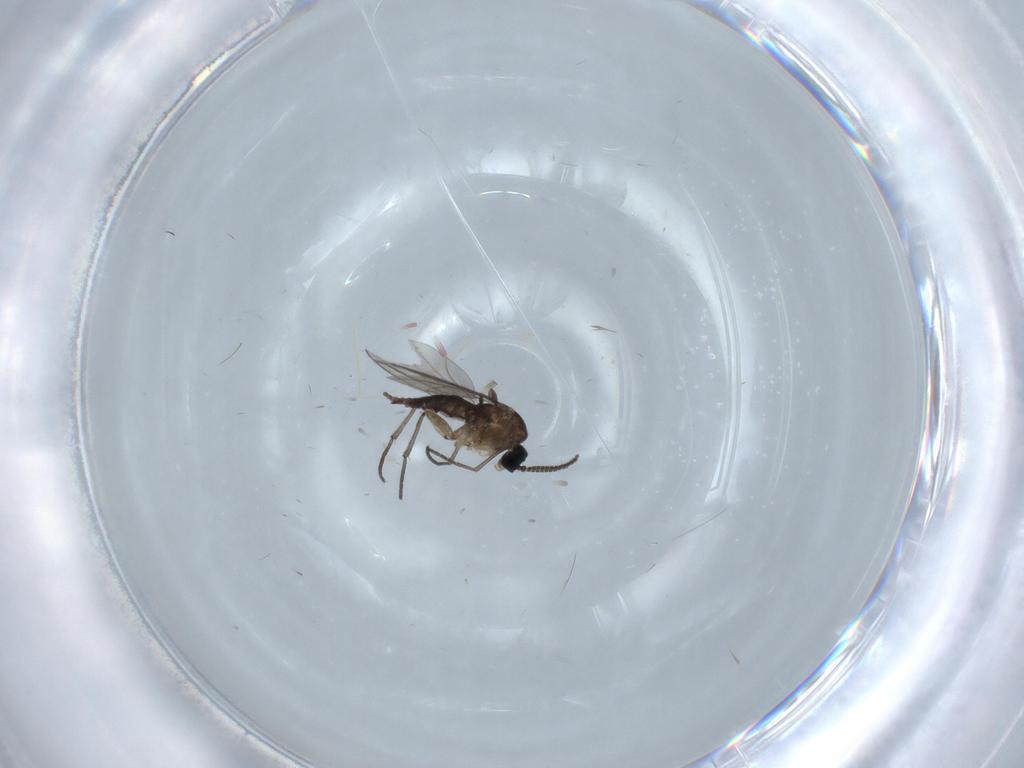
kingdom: Animalia
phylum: Arthropoda
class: Insecta
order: Diptera
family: Sciaridae
